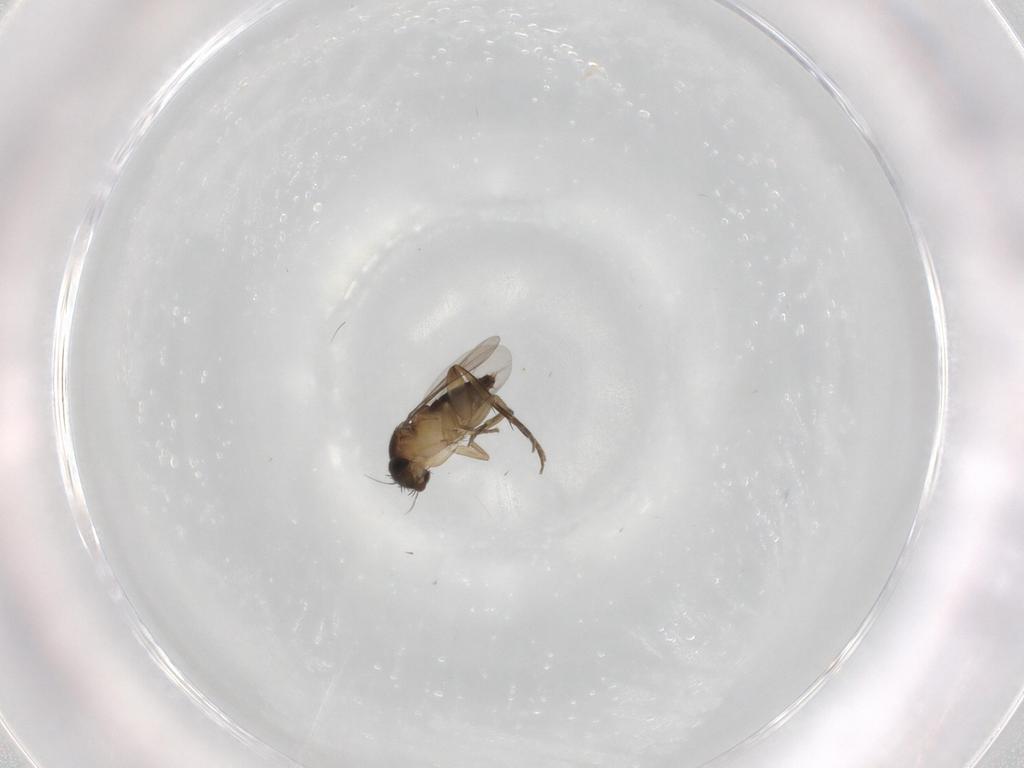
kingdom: Animalia
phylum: Arthropoda
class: Insecta
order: Diptera
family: Phoridae
